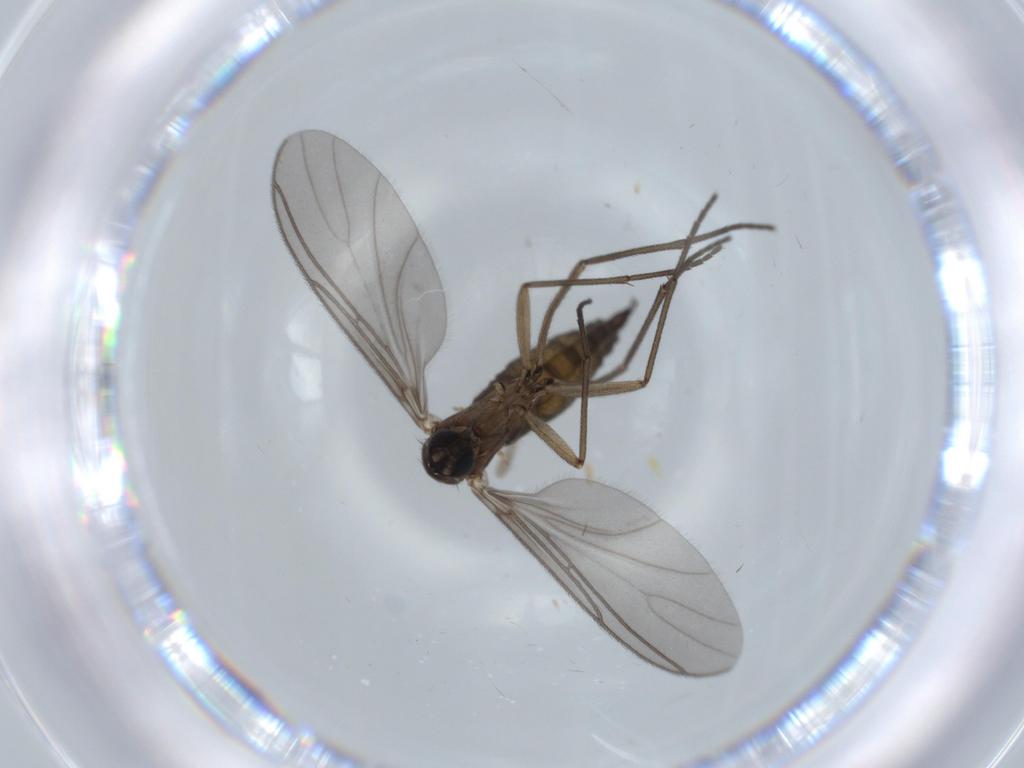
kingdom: Animalia
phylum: Arthropoda
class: Insecta
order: Diptera
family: Sciaridae
